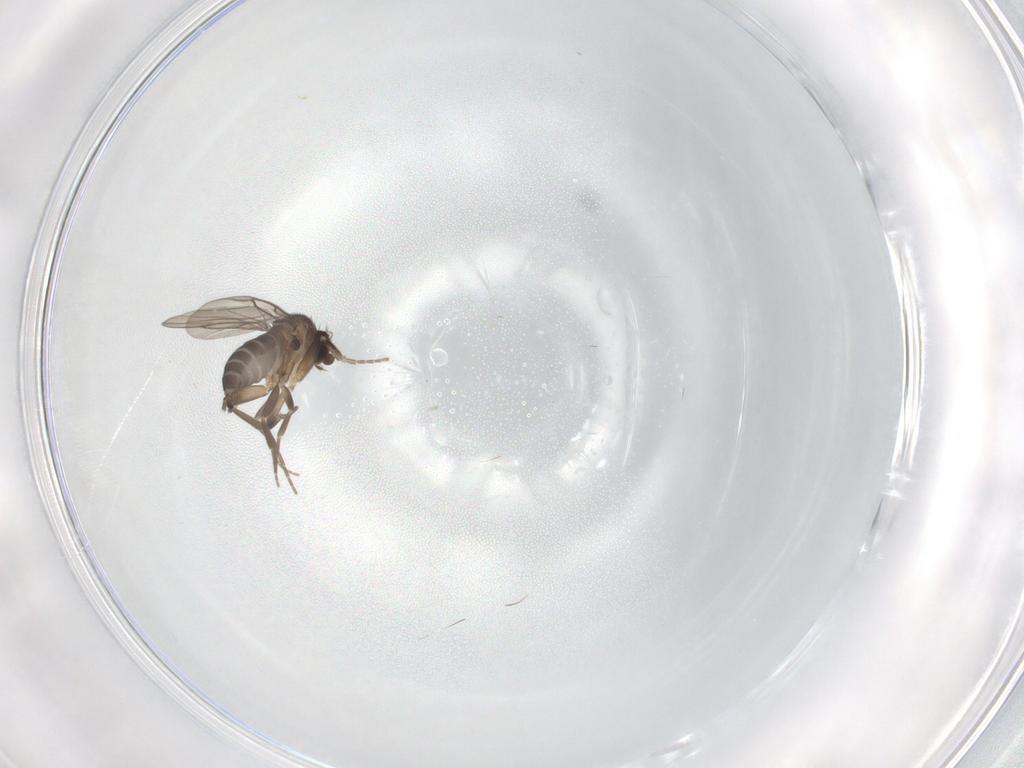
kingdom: Animalia
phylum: Arthropoda
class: Insecta
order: Diptera
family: Phoridae
